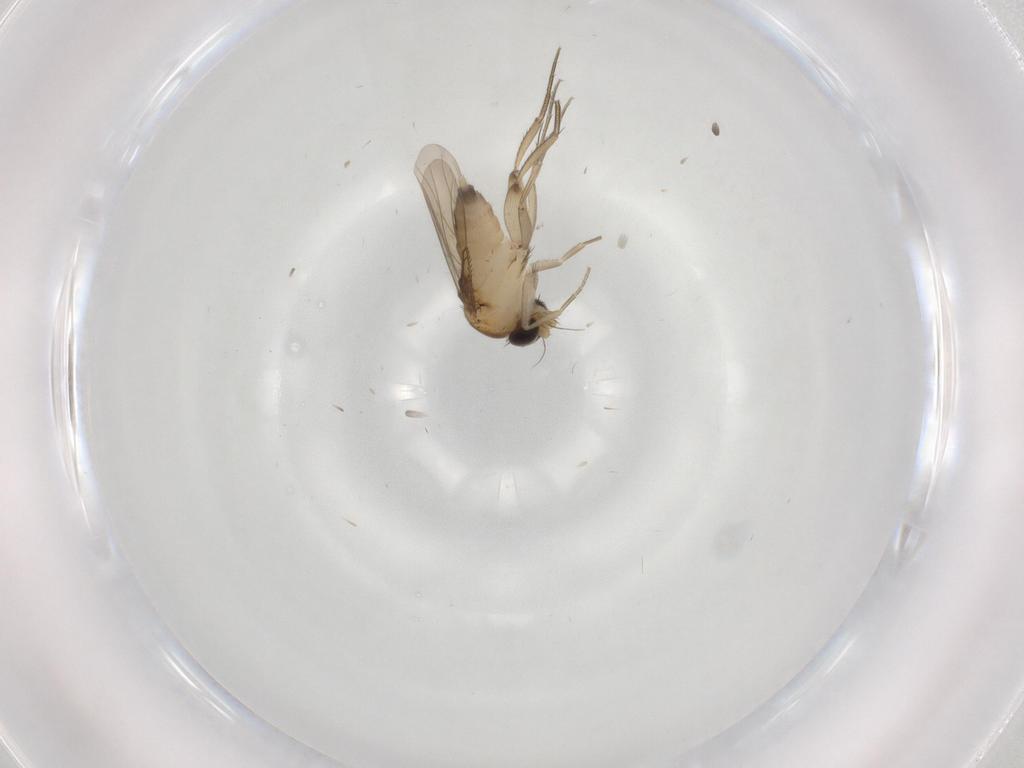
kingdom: Animalia
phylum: Arthropoda
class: Insecta
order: Diptera
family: Phoridae
